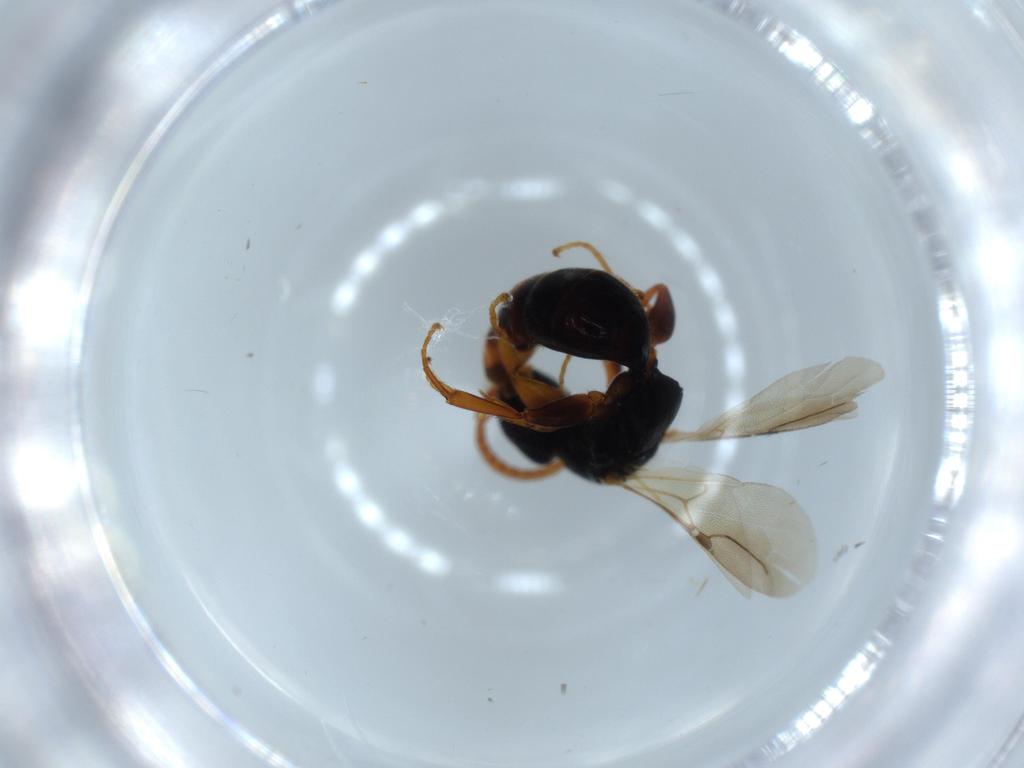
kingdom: Animalia
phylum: Arthropoda
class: Insecta
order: Hymenoptera
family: Bethylidae
